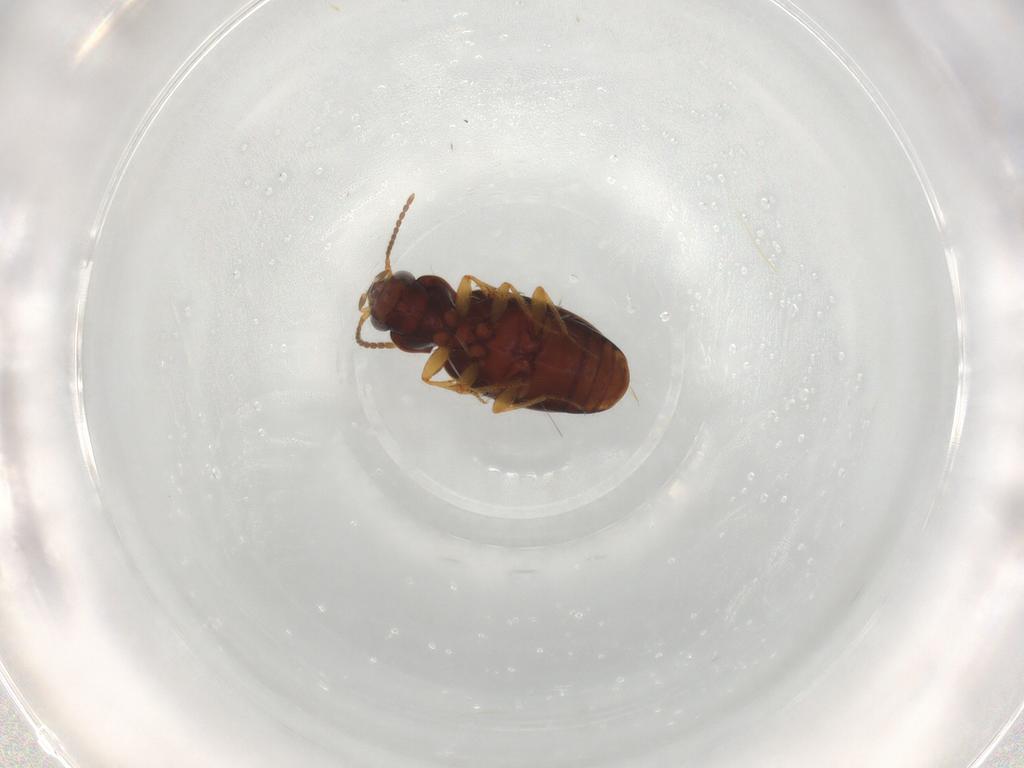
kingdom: Animalia
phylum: Arthropoda
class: Insecta
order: Coleoptera
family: Carabidae
